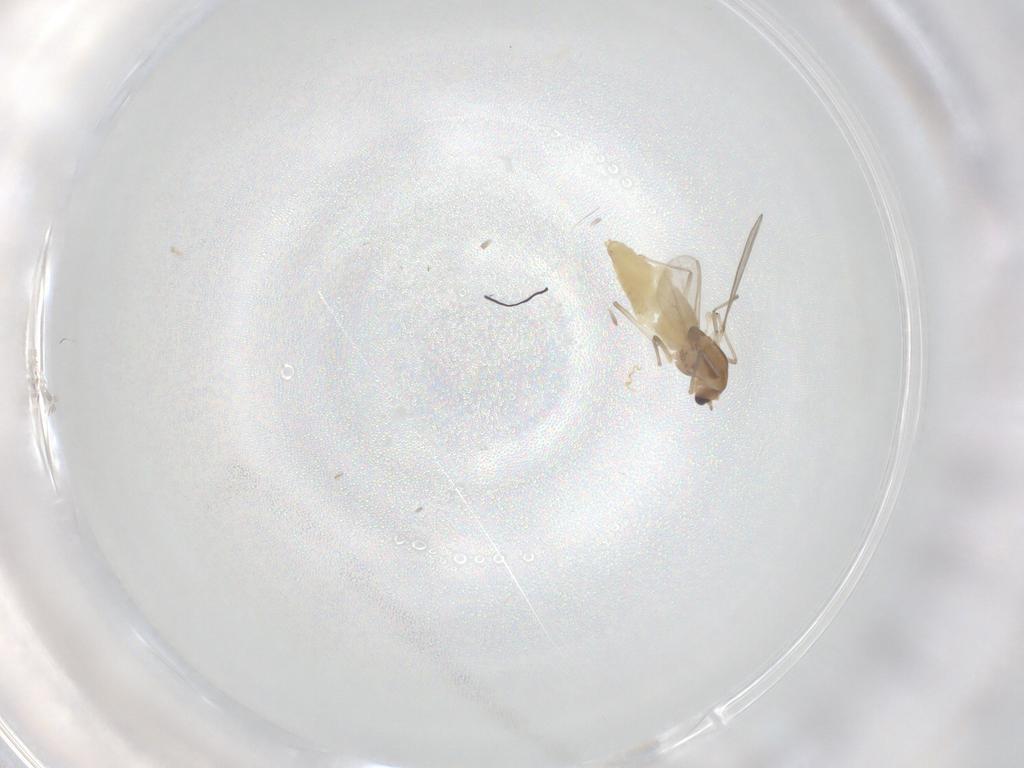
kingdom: Animalia
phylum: Arthropoda
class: Insecta
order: Diptera
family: Chironomidae
